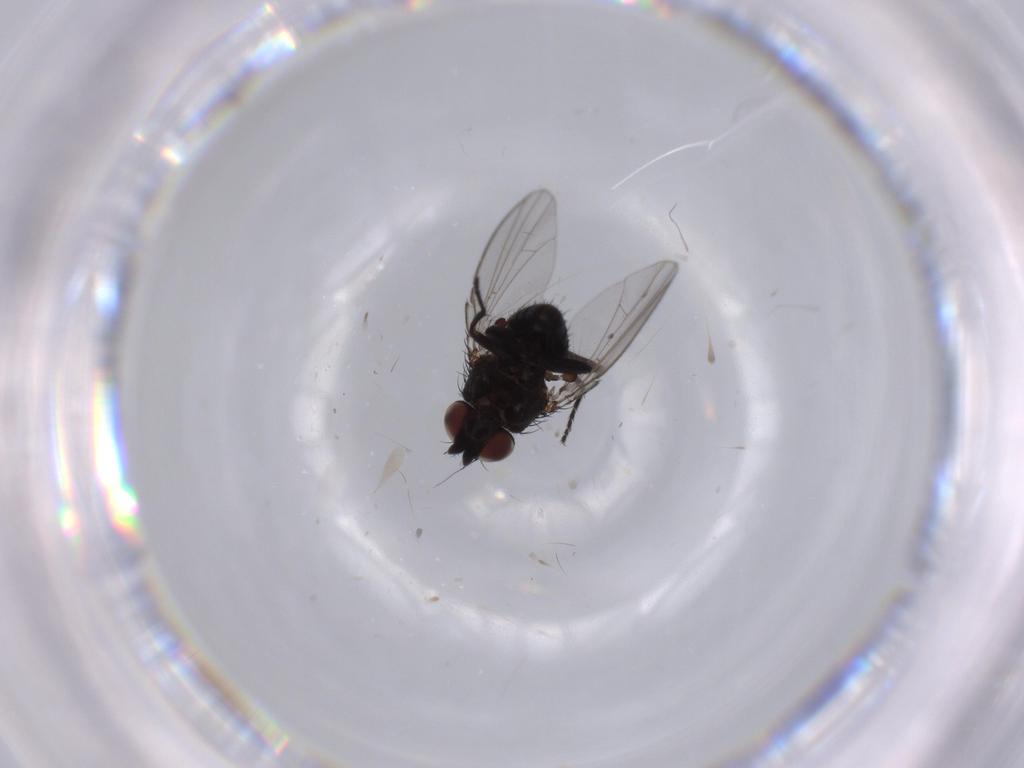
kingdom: Animalia
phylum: Arthropoda
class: Insecta
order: Diptera
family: Milichiidae
